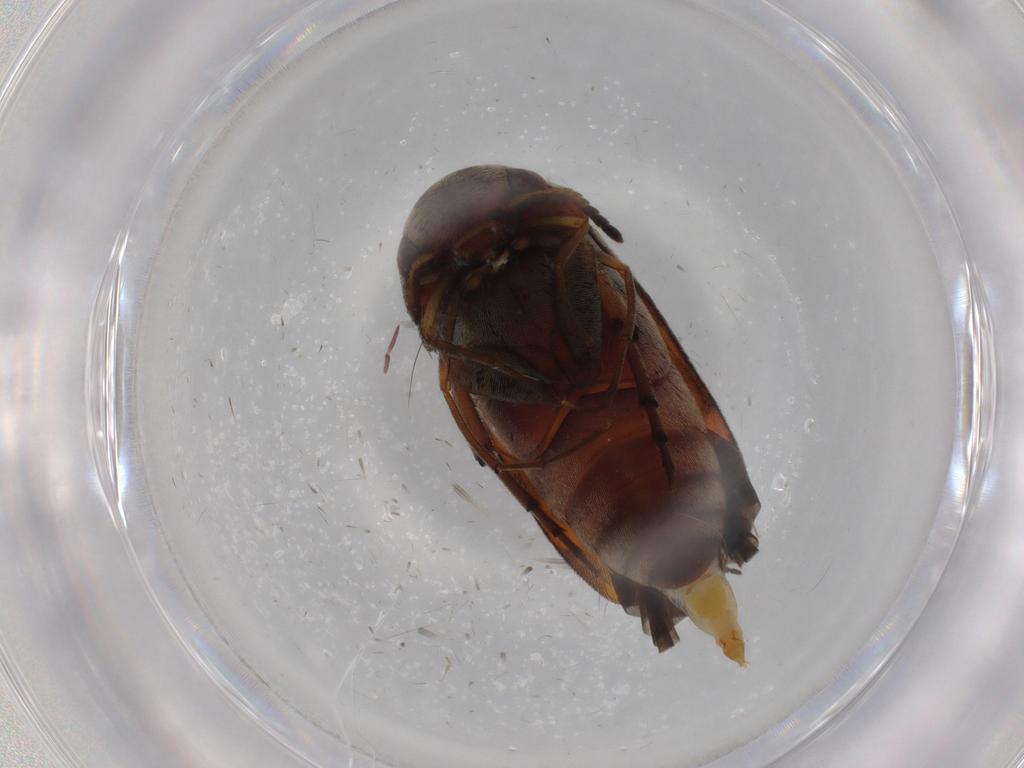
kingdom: Animalia
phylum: Arthropoda
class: Insecta
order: Coleoptera
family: Mordellidae
